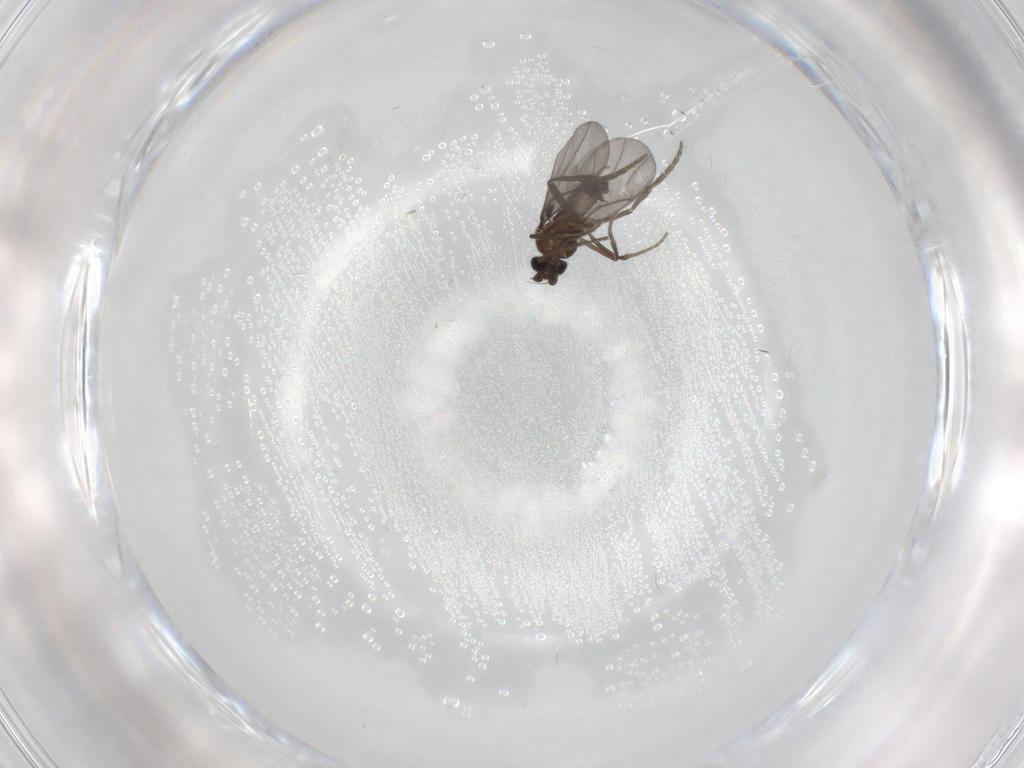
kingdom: Animalia
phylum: Arthropoda
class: Insecta
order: Diptera
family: Phoridae
